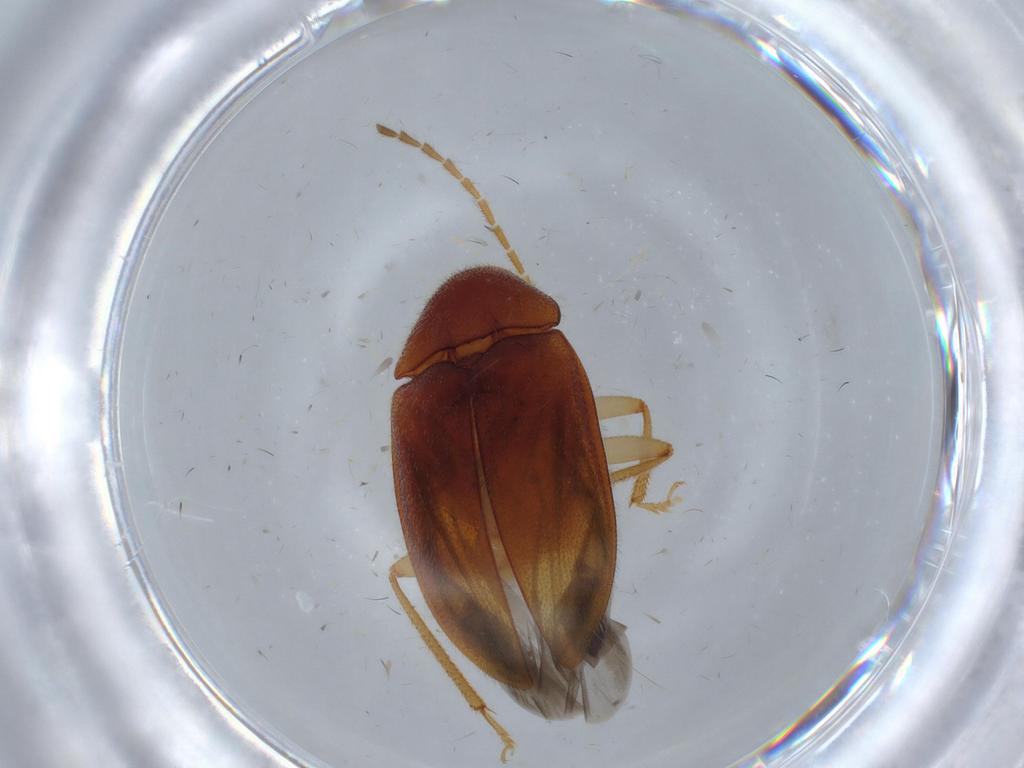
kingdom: Animalia
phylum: Arthropoda
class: Insecta
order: Coleoptera
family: Ptilodactylidae
